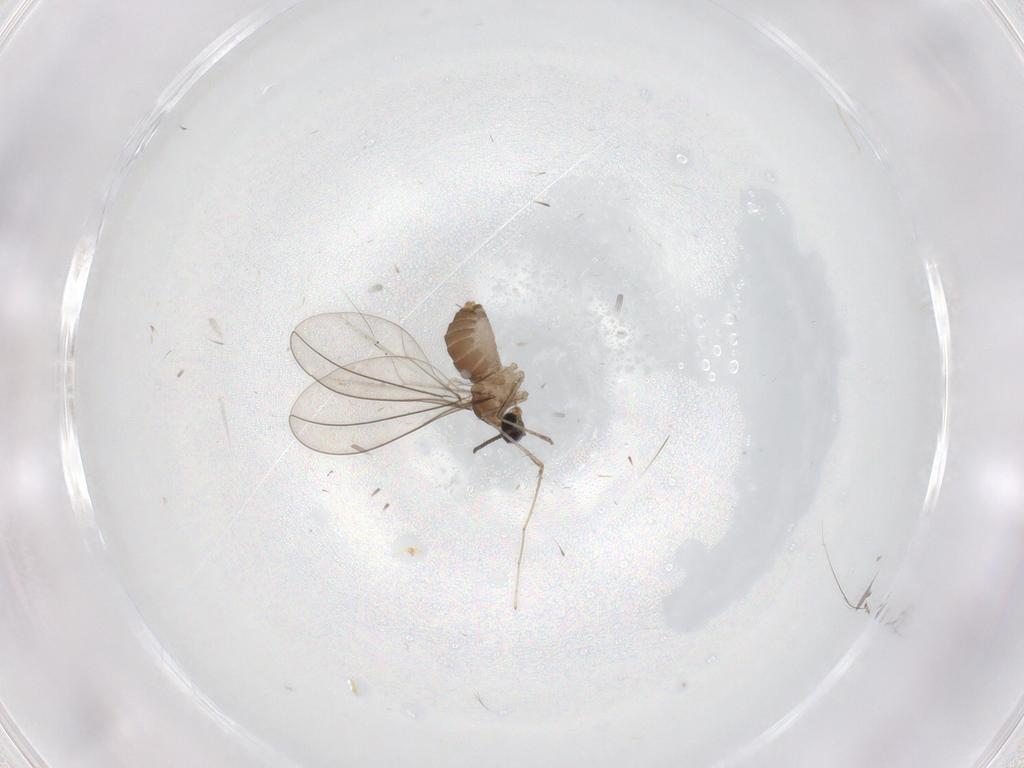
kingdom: Animalia
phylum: Arthropoda
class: Insecta
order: Diptera
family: Cecidomyiidae
